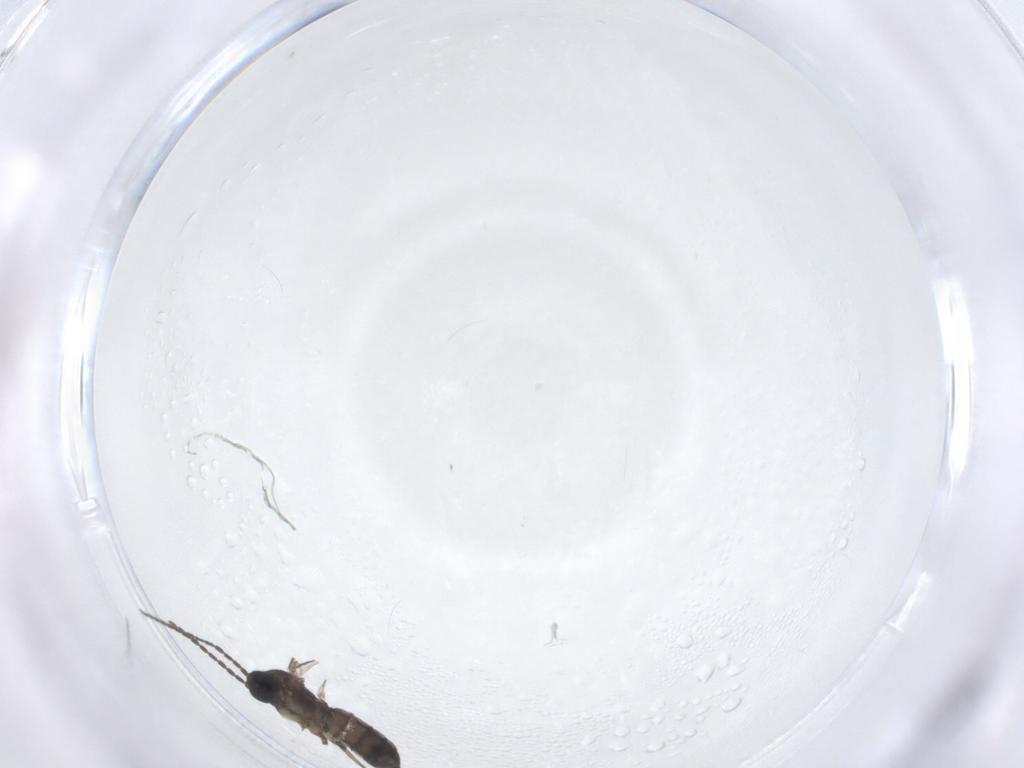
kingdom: Animalia
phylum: Arthropoda
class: Insecta
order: Diptera
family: Sciaridae
